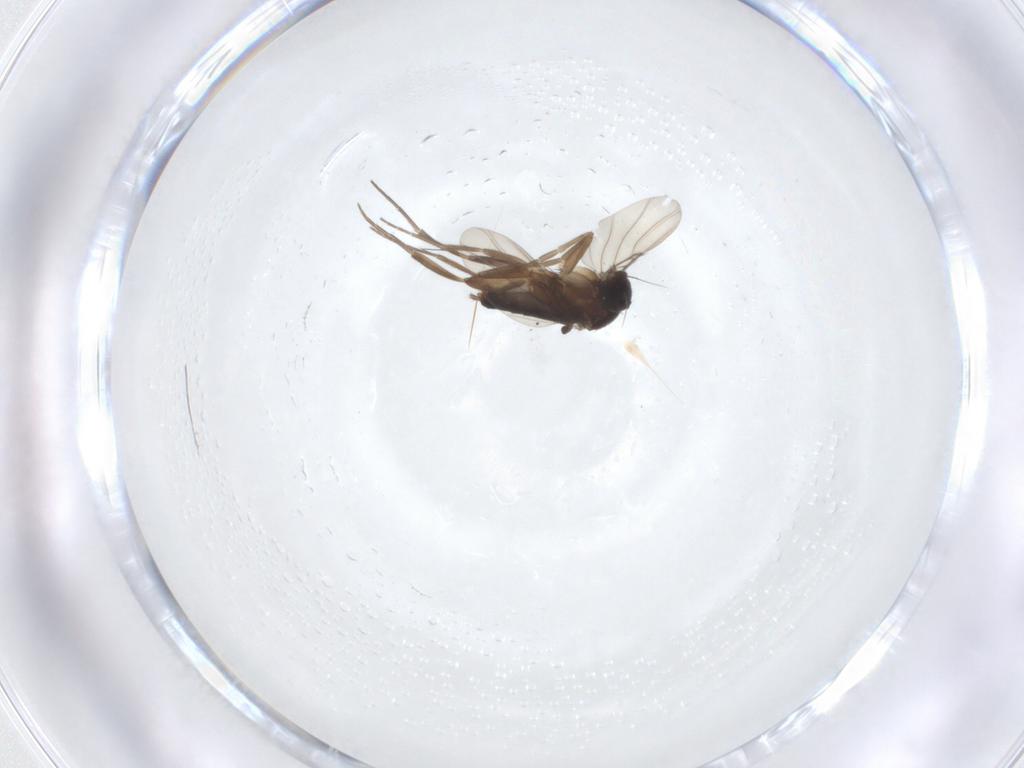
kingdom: Animalia
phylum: Arthropoda
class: Insecta
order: Diptera
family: Phoridae
